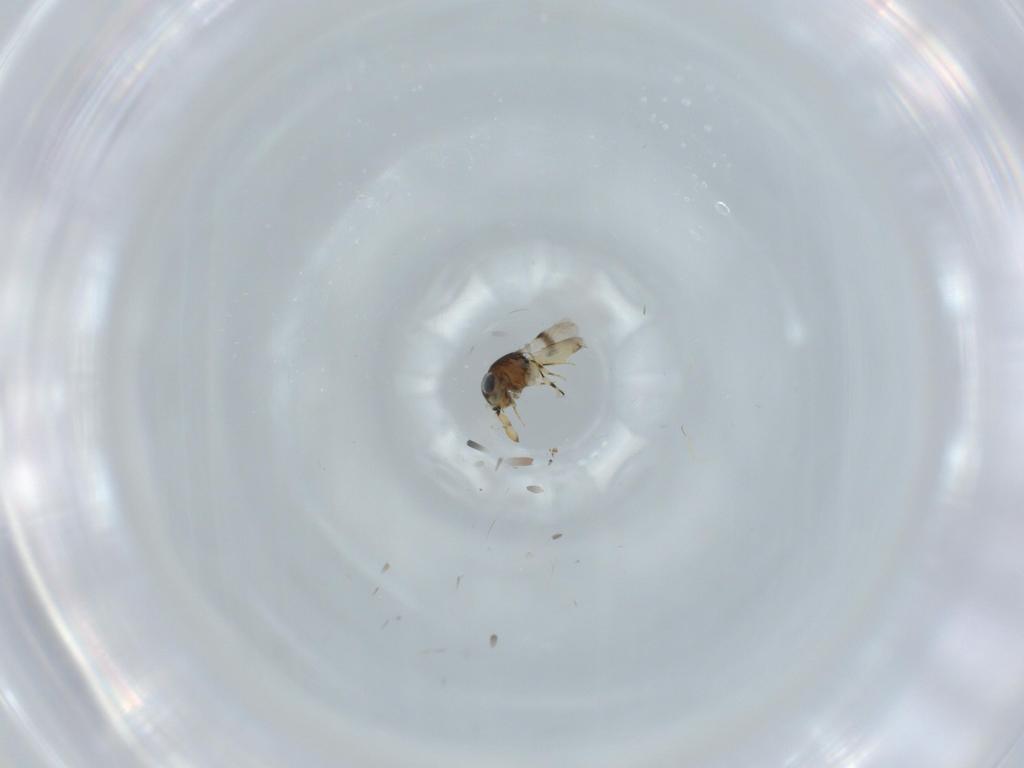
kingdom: Animalia
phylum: Arthropoda
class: Insecta
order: Hymenoptera
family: Scelionidae
